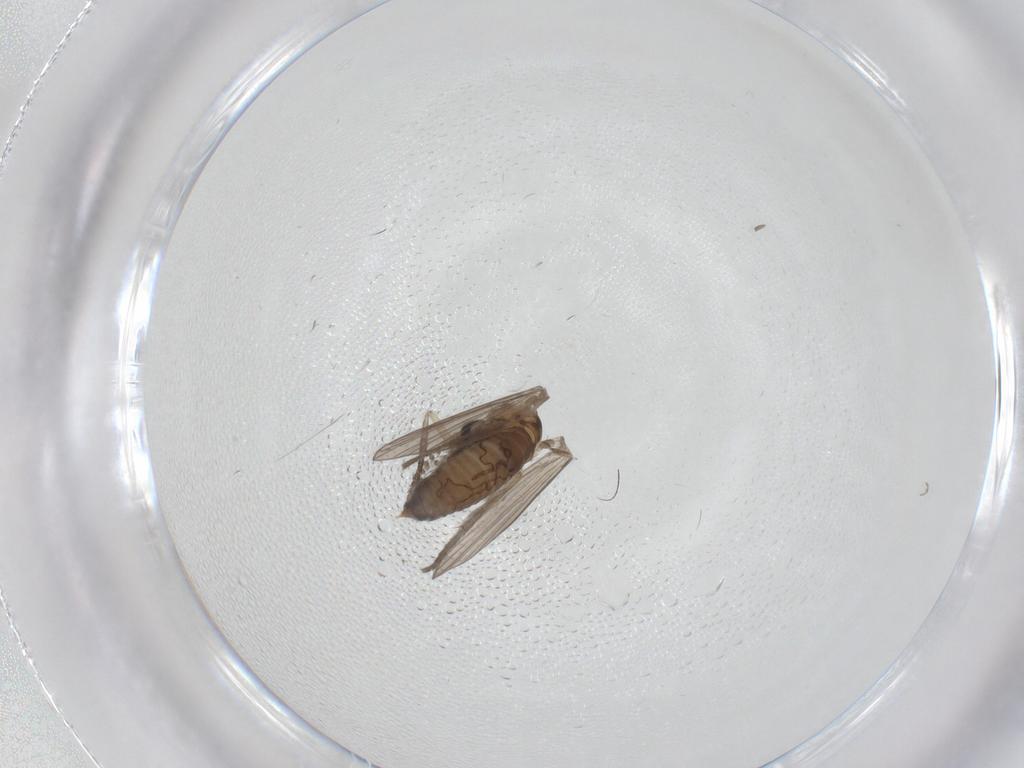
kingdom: Animalia
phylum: Arthropoda
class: Insecta
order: Diptera
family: Psychodidae
